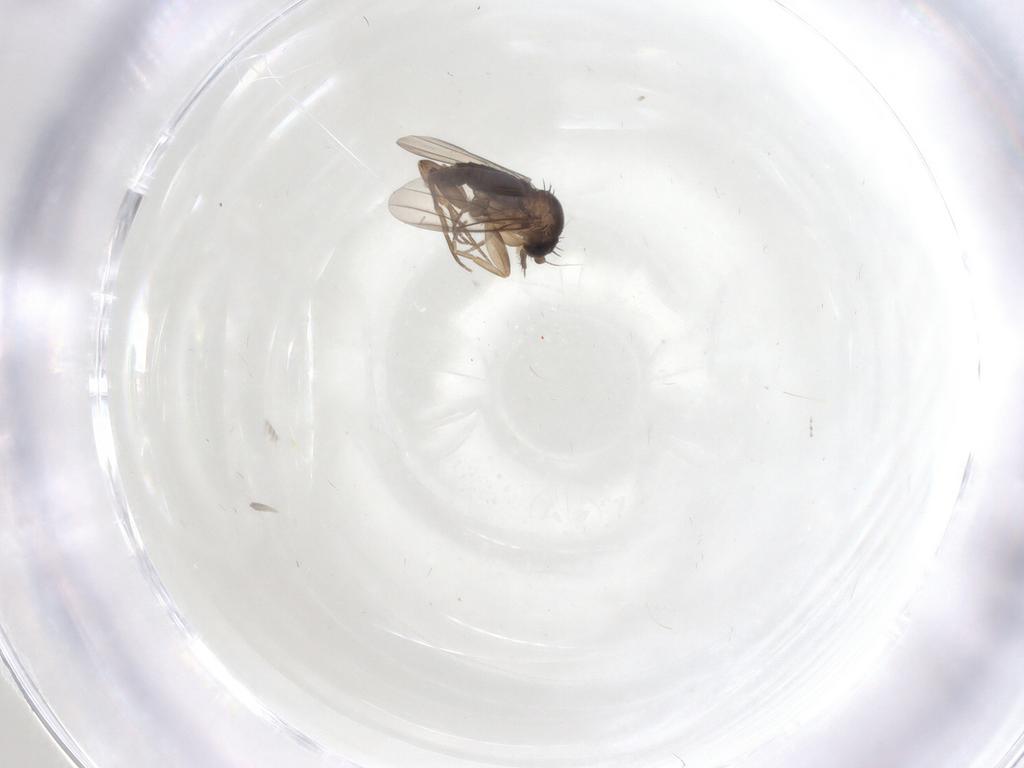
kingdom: Animalia
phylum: Arthropoda
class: Insecta
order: Diptera
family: Phoridae
